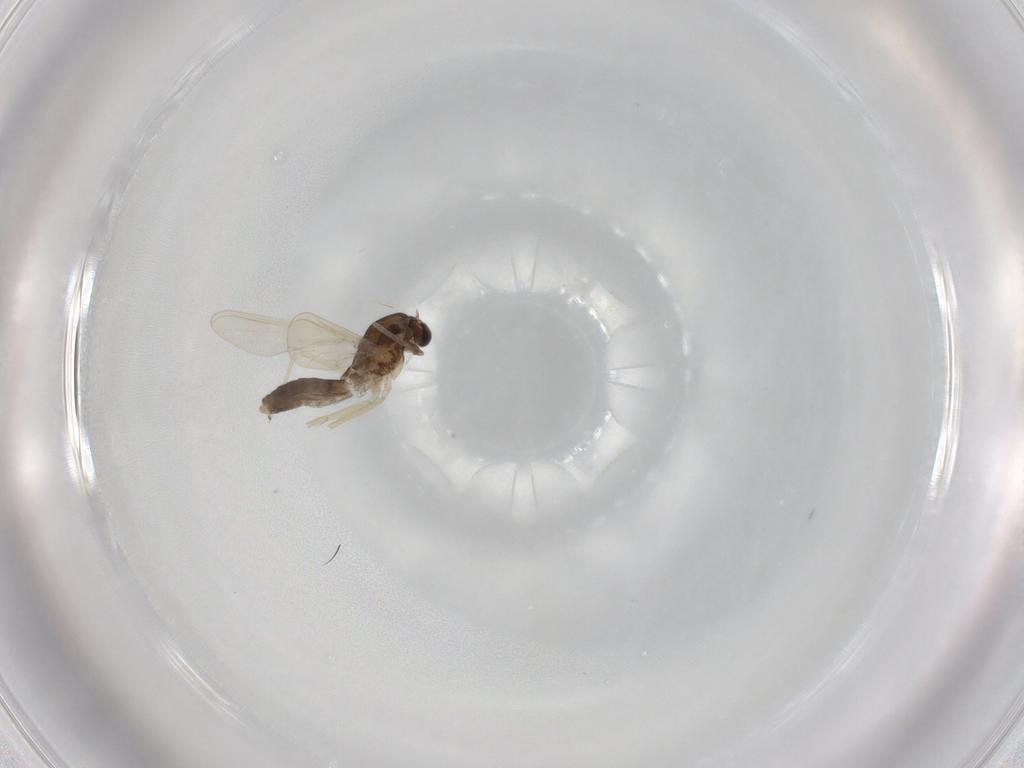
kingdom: Animalia
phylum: Arthropoda
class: Insecta
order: Diptera
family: Chironomidae
